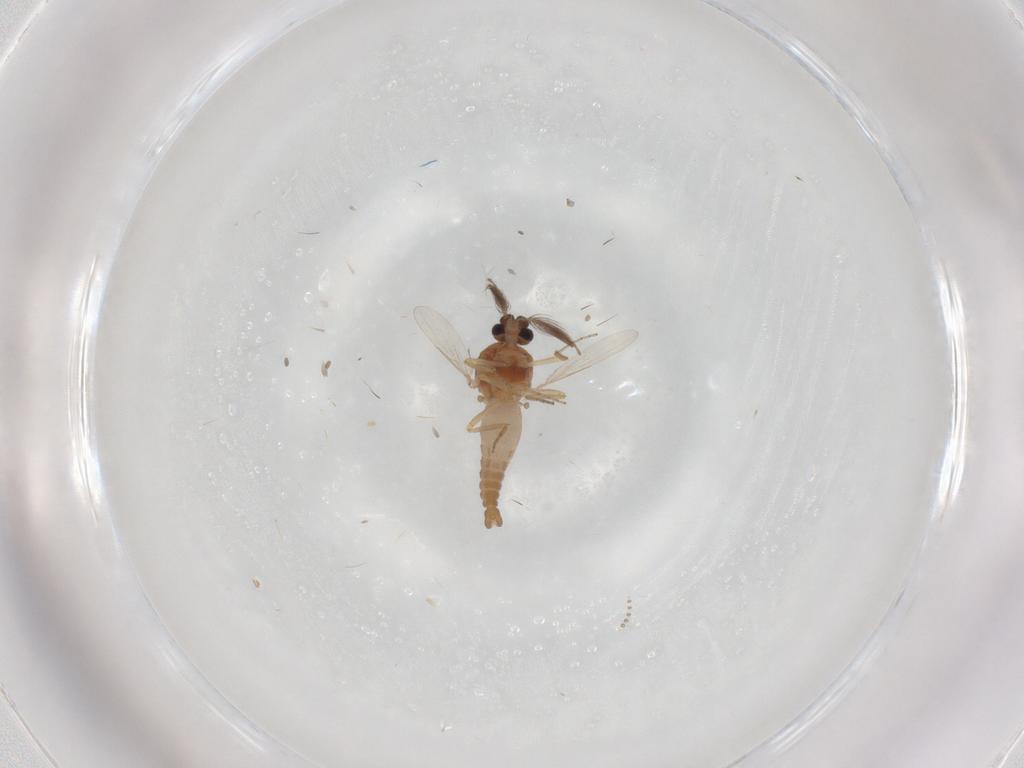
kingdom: Animalia
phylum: Arthropoda
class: Insecta
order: Diptera
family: Ceratopogonidae
